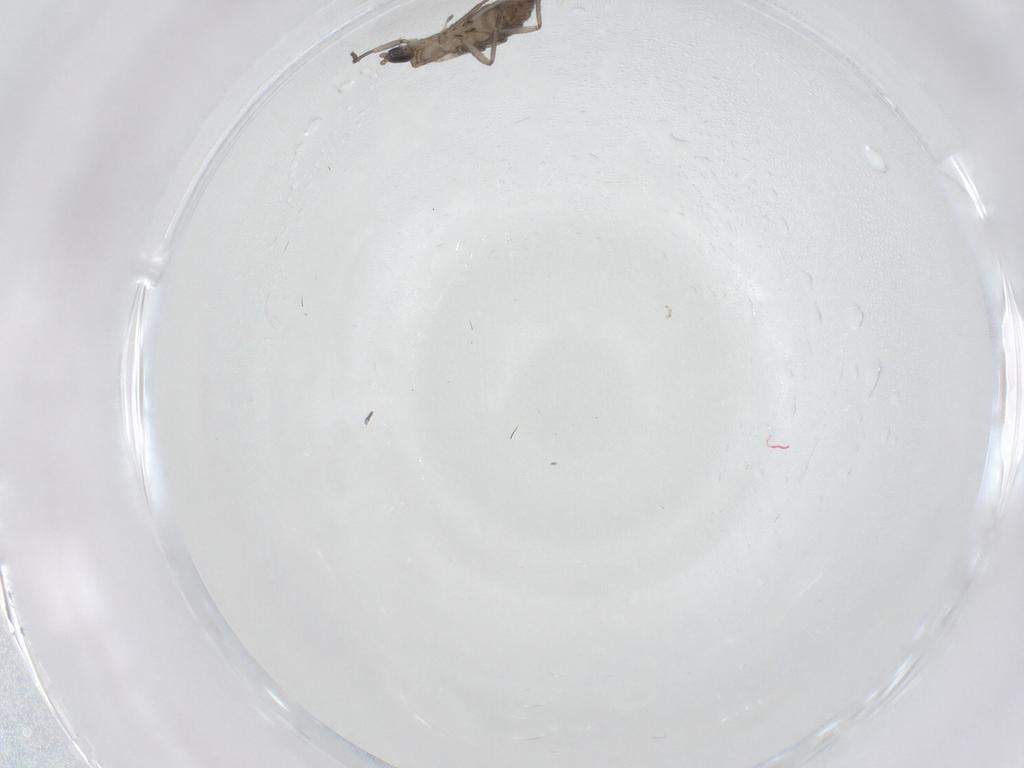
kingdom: Animalia
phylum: Arthropoda
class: Insecta
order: Diptera
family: Sciaridae
